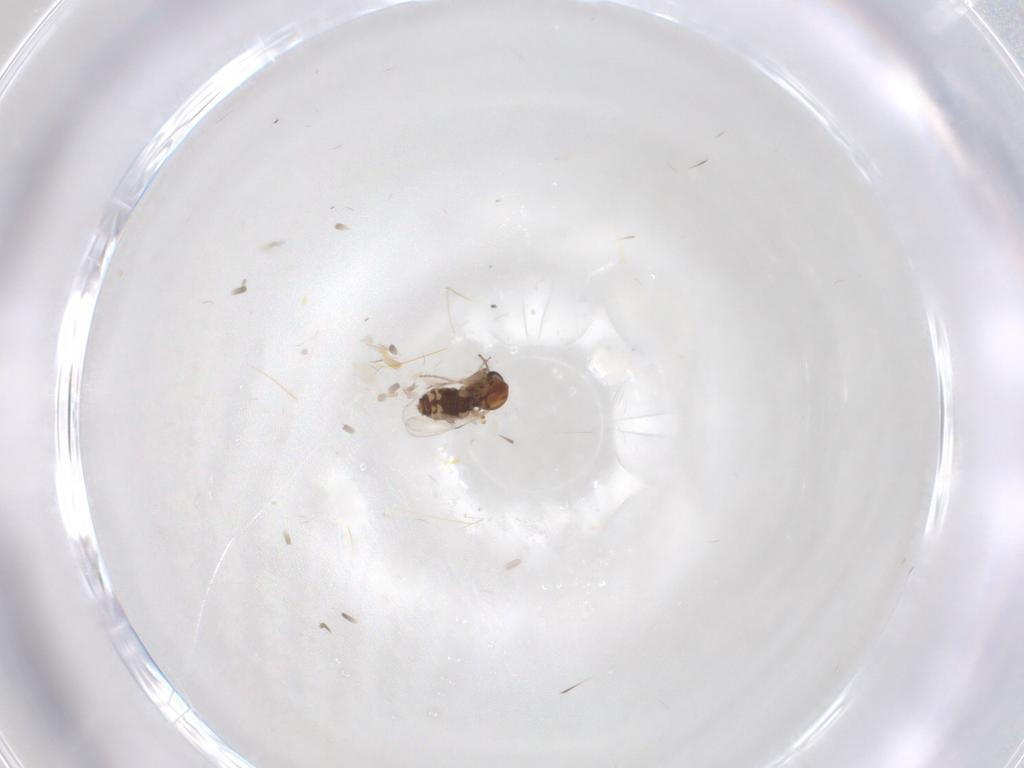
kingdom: Animalia
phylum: Arthropoda
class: Insecta
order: Diptera
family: Ceratopogonidae
